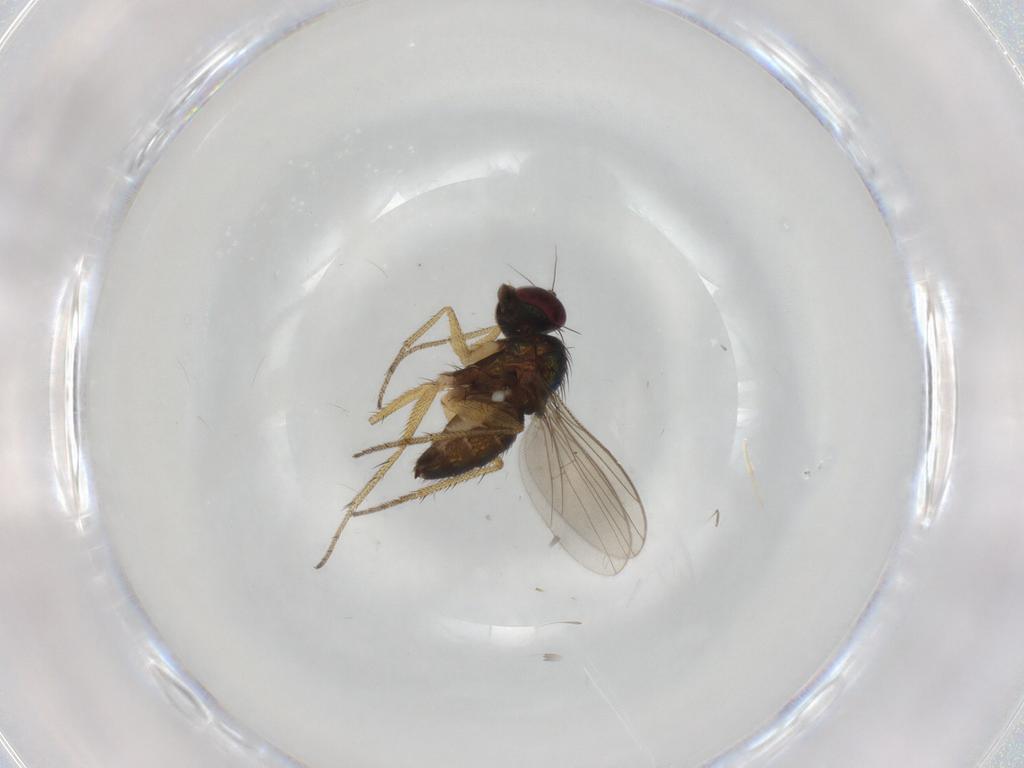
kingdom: Animalia
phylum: Arthropoda
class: Insecta
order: Diptera
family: Dolichopodidae
